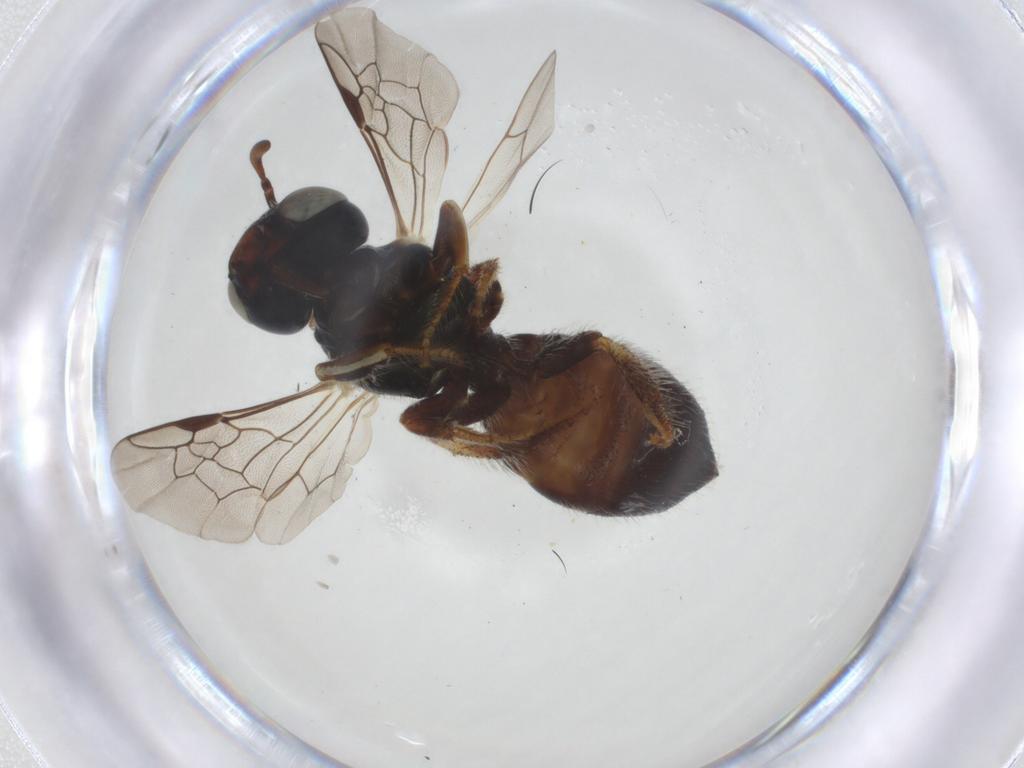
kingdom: Animalia
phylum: Arthropoda
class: Insecta
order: Hymenoptera
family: Apidae
